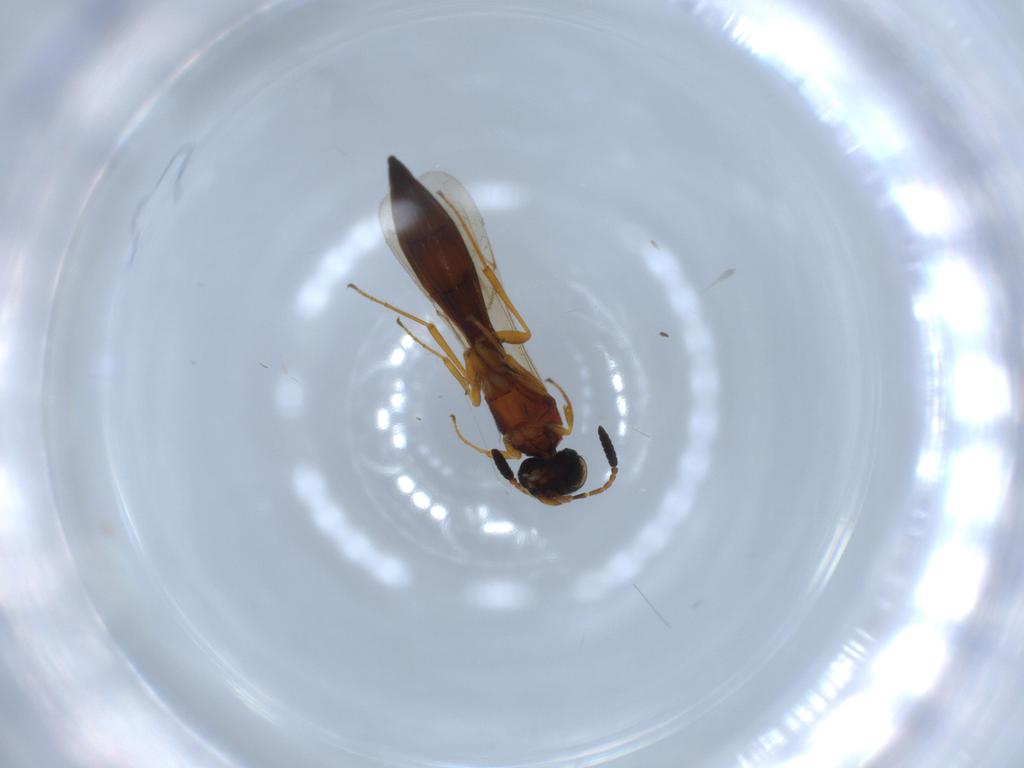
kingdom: Animalia
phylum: Arthropoda
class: Insecta
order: Hymenoptera
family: Scelionidae
